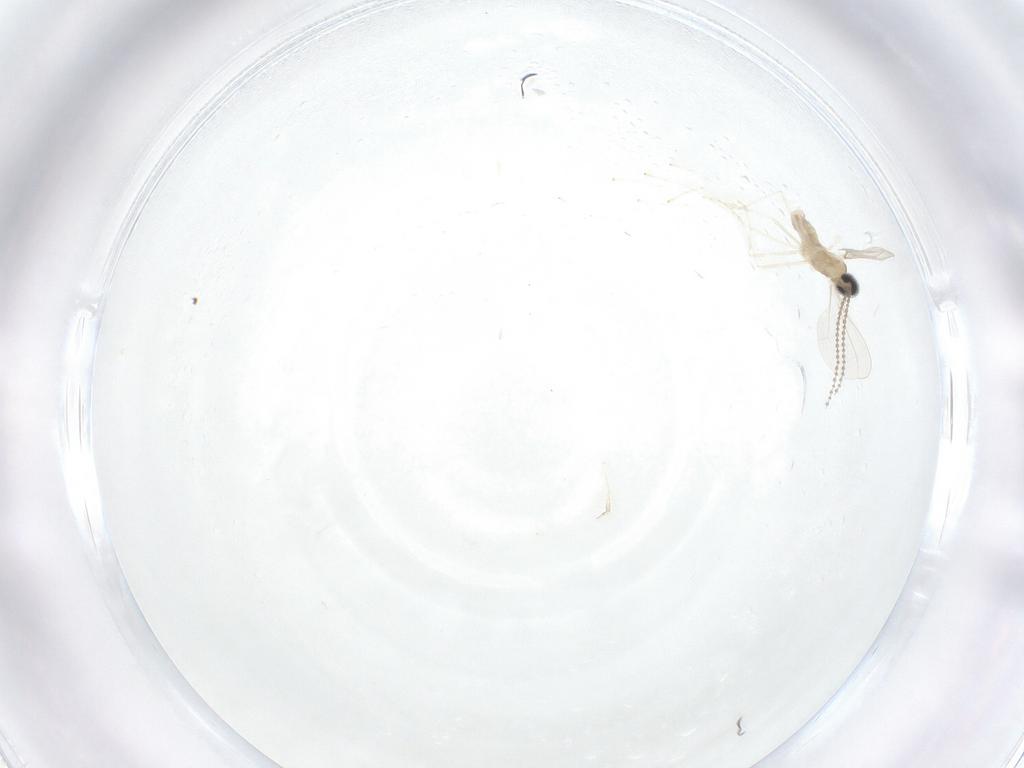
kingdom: Animalia
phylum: Arthropoda
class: Insecta
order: Diptera
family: Cecidomyiidae
